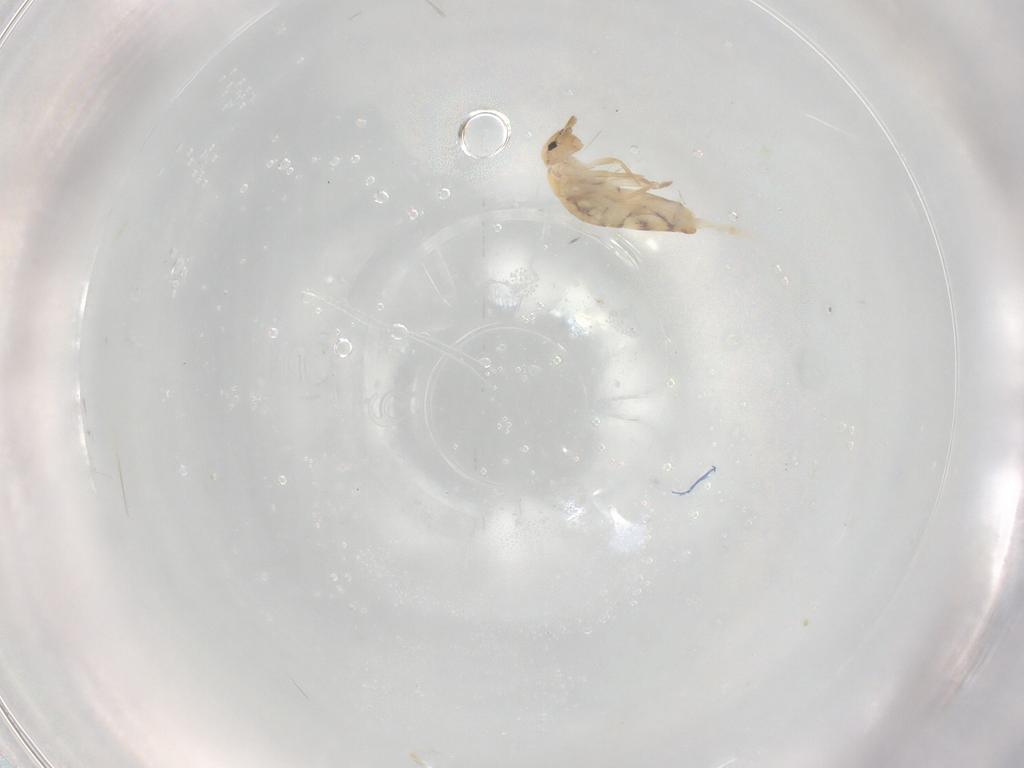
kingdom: Animalia
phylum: Arthropoda
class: Collembola
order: Entomobryomorpha
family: Entomobryidae
